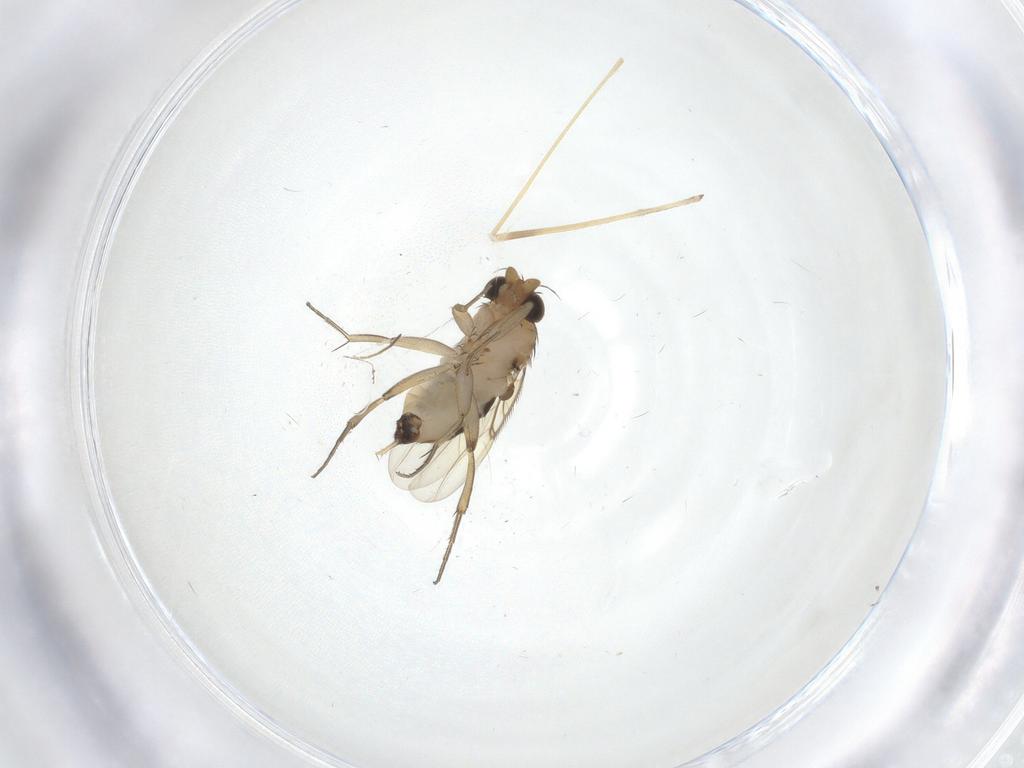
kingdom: Animalia
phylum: Arthropoda
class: Insecta
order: Diptera
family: Phoridae
